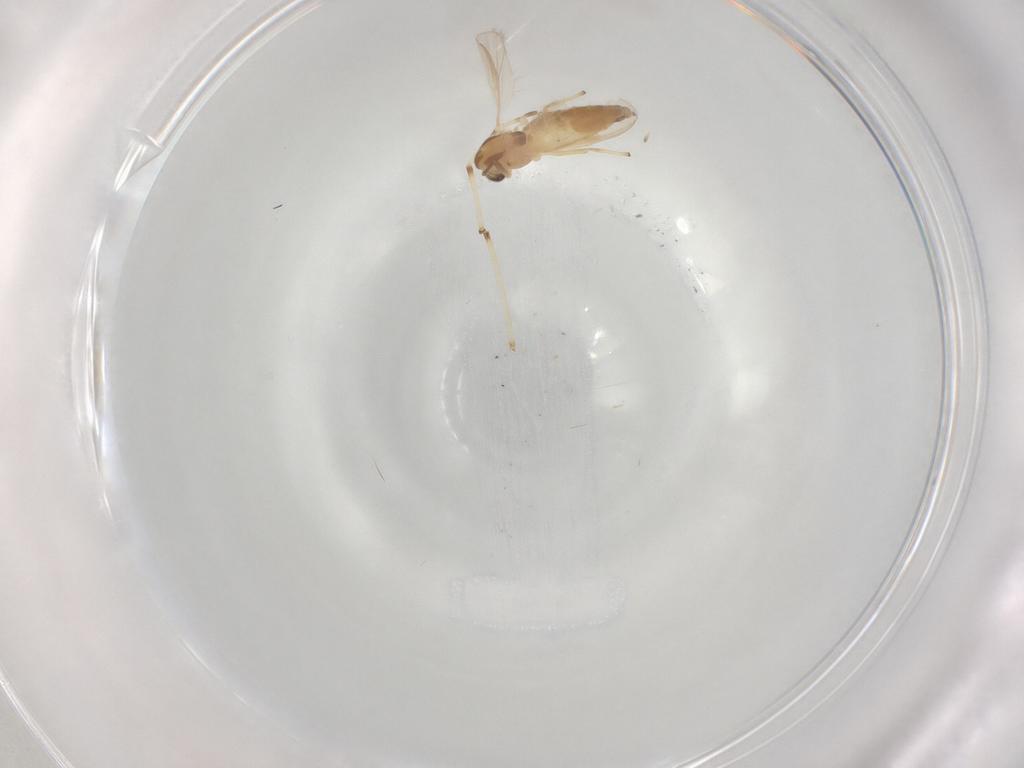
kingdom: Animalia
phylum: Arthropoda
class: Insecta
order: Diptera
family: Chironomidae
